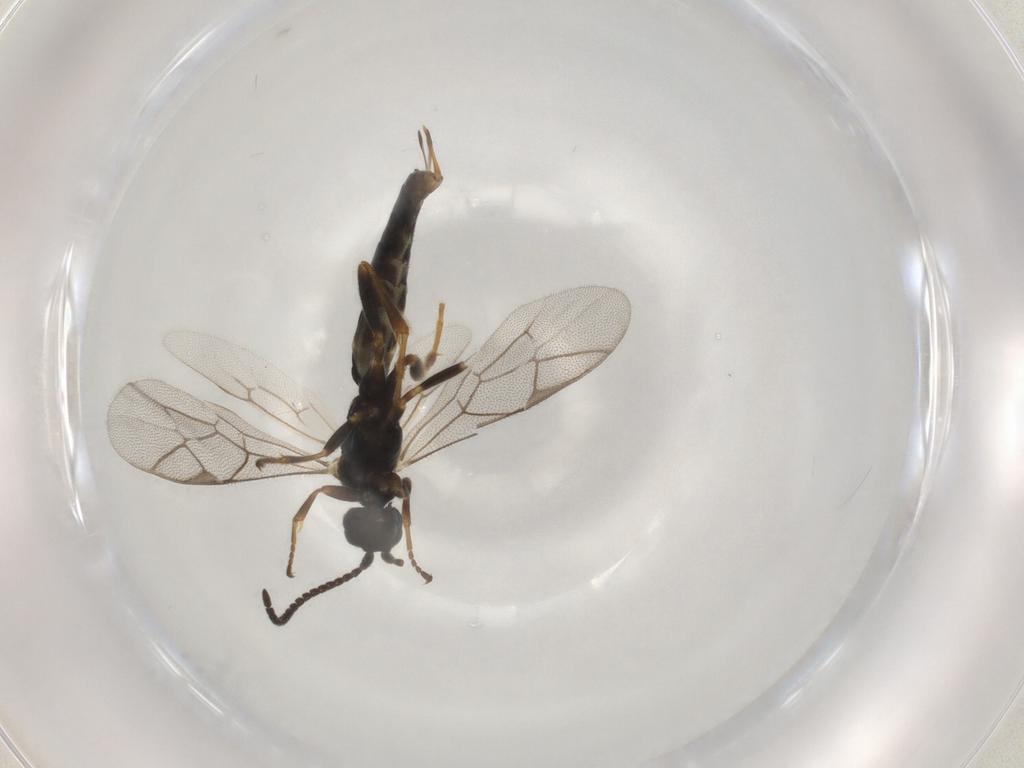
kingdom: Animalia
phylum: Arthropoda
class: Insecta
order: Hymenoptera
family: Ichneumonidae
